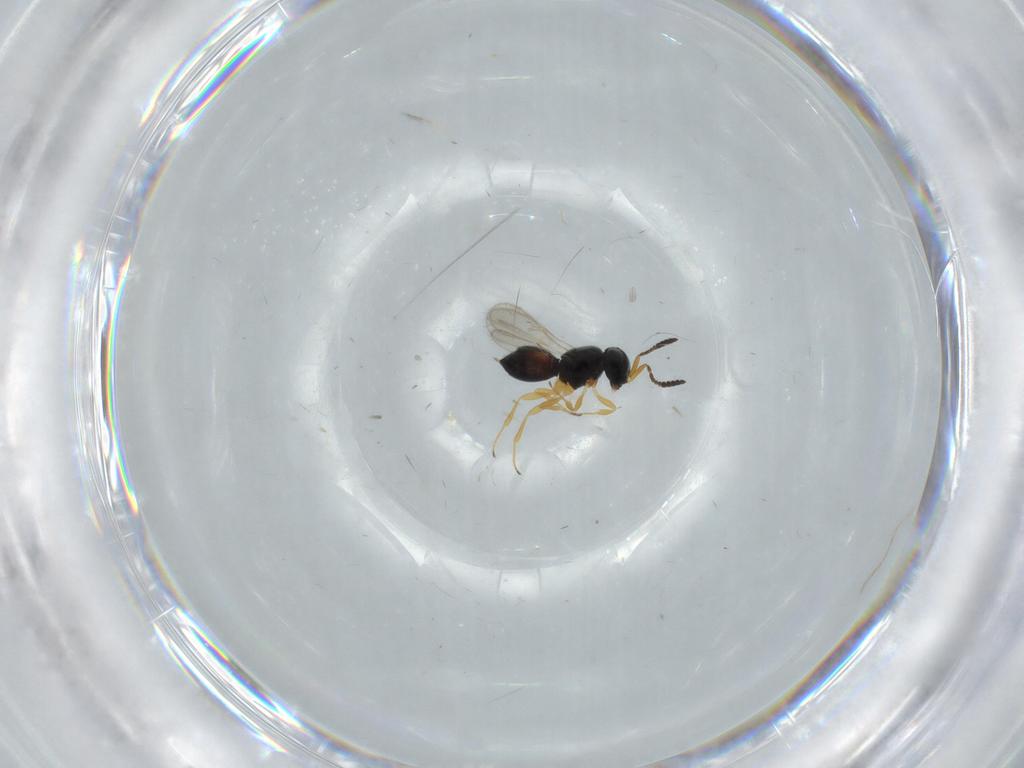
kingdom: Animalia
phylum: Arthropoda
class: Insecta
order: Hymenoptera
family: Scelionidae
